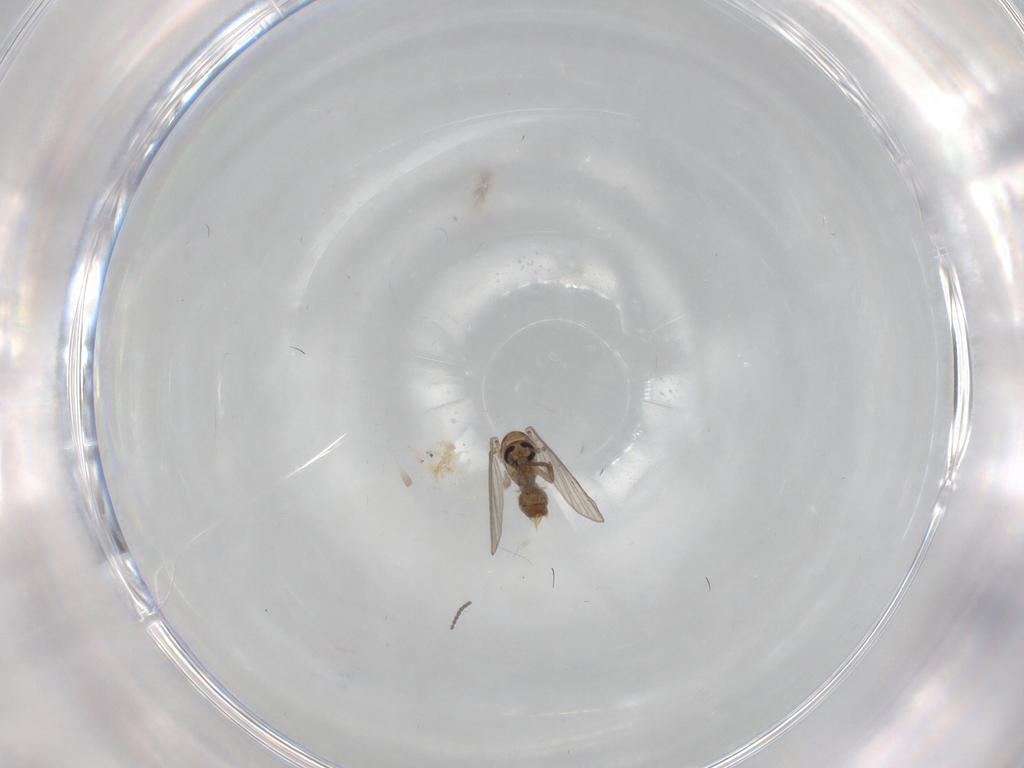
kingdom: Animalia
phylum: Arthropoda
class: Insecta
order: Diptera
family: Psychodidae
